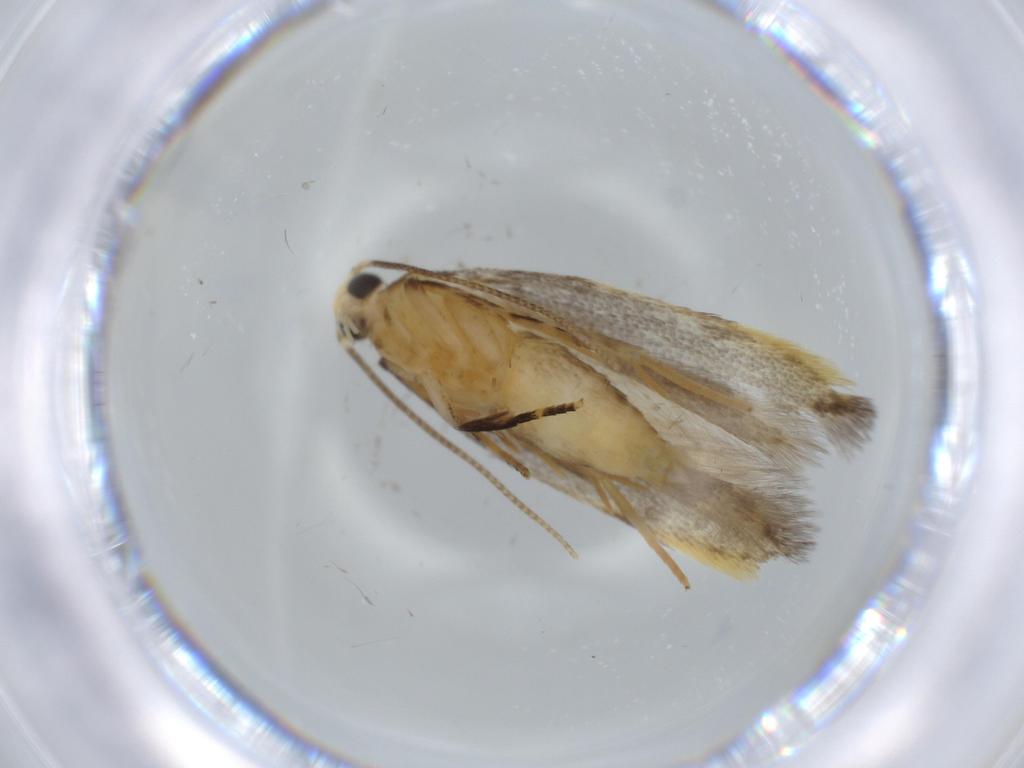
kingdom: Animalia
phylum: Arthropoda
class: Insecta
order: Lepidoptera
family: Autostichidae
